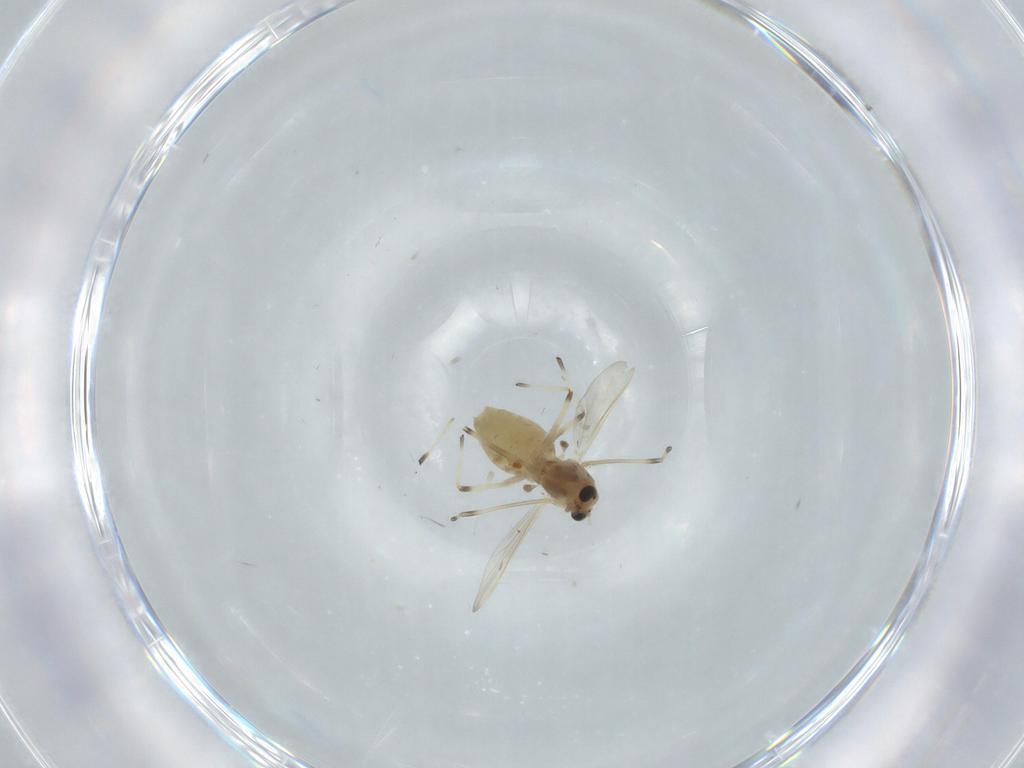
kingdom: Animalia
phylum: Arthropoda
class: Insecta
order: Diptera
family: Chironomidae
